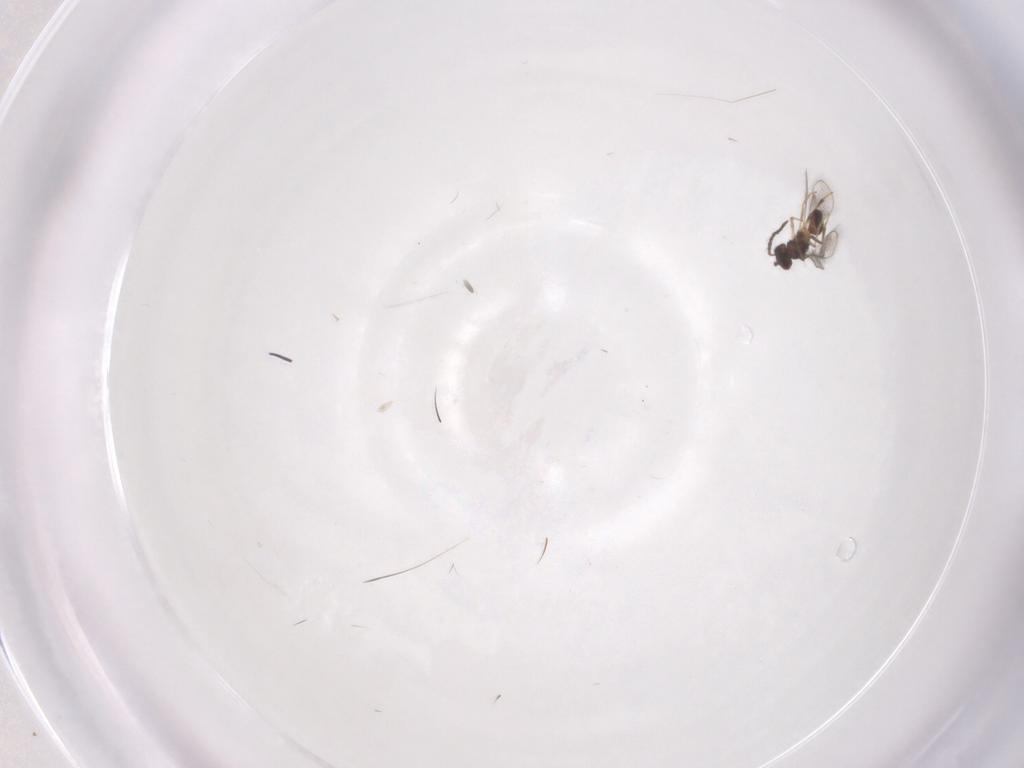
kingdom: Animalia
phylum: Arthropoda
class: Insecta
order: Hymenoptera
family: Pteromalidae
